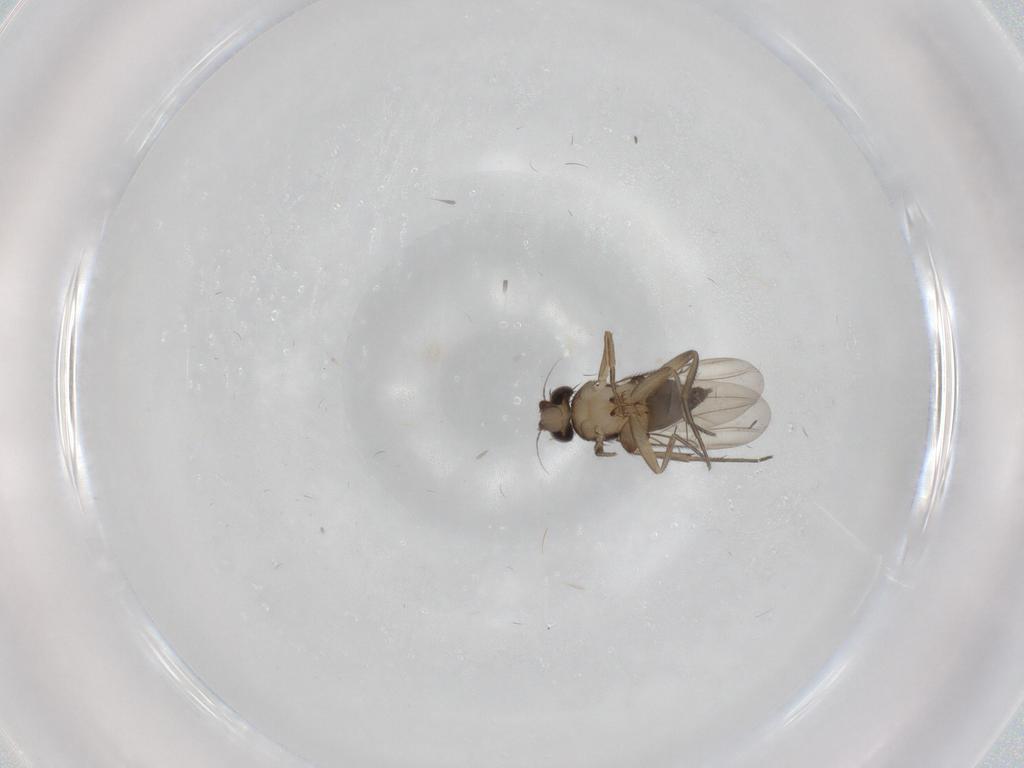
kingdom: Animalia
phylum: Arthropoda
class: Insecta
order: Diptera
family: Phoridae
